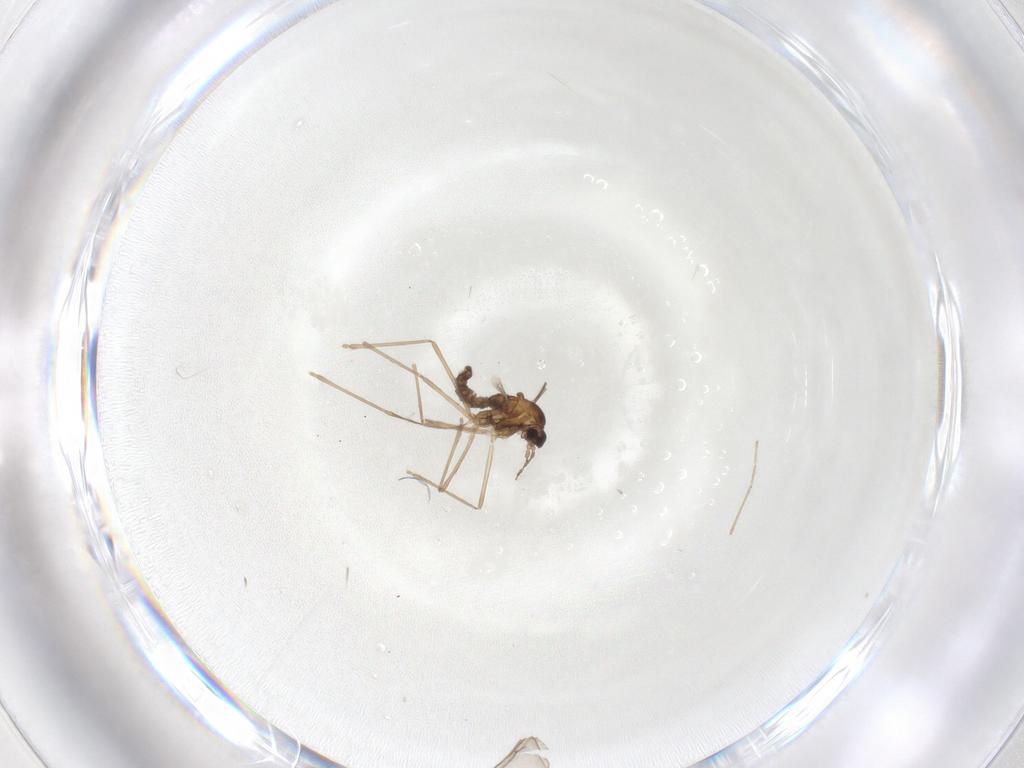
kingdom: Animalia
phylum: Arthropoda
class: Insecta
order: Diptera
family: Cecidomyiidae
